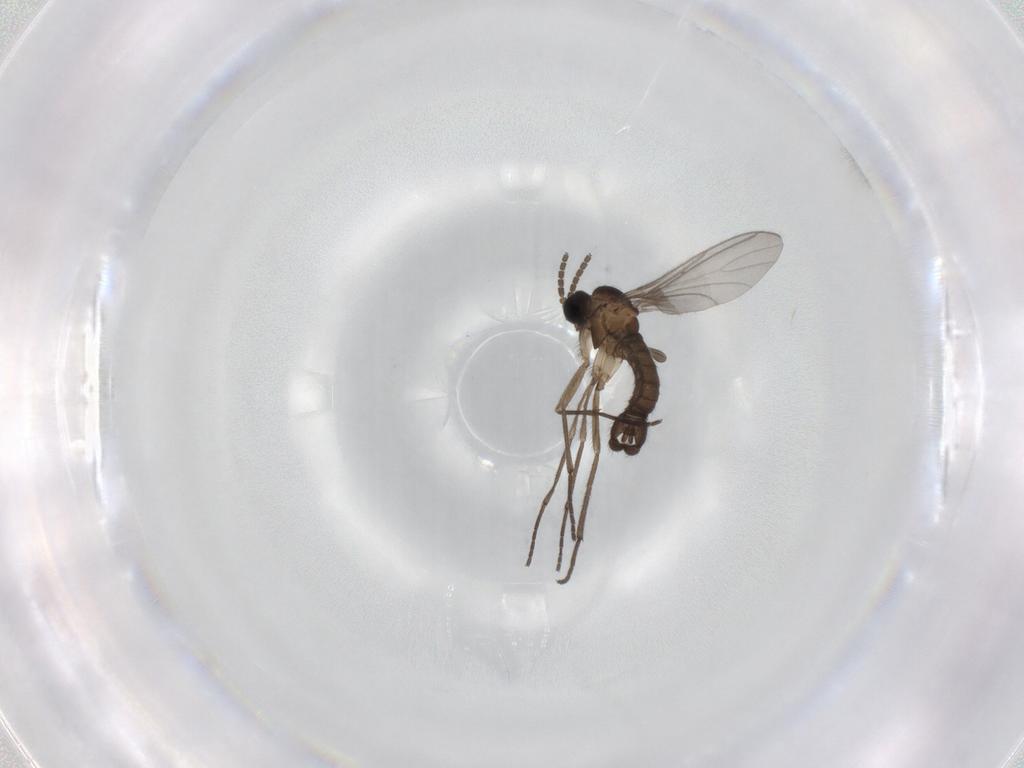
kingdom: Animalia
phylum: Arthropoda
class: Insecta
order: Diptera
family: Sciaridae
